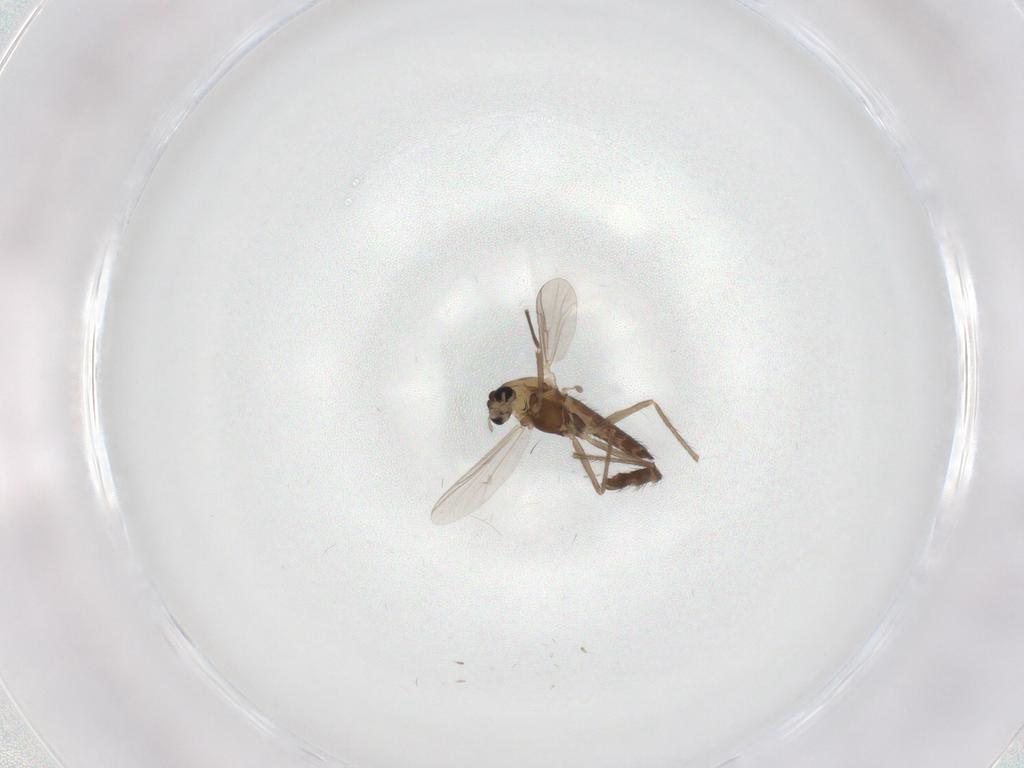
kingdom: Animalia
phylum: Arthropoda
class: Insecta
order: Diptera
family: Chironomidae
